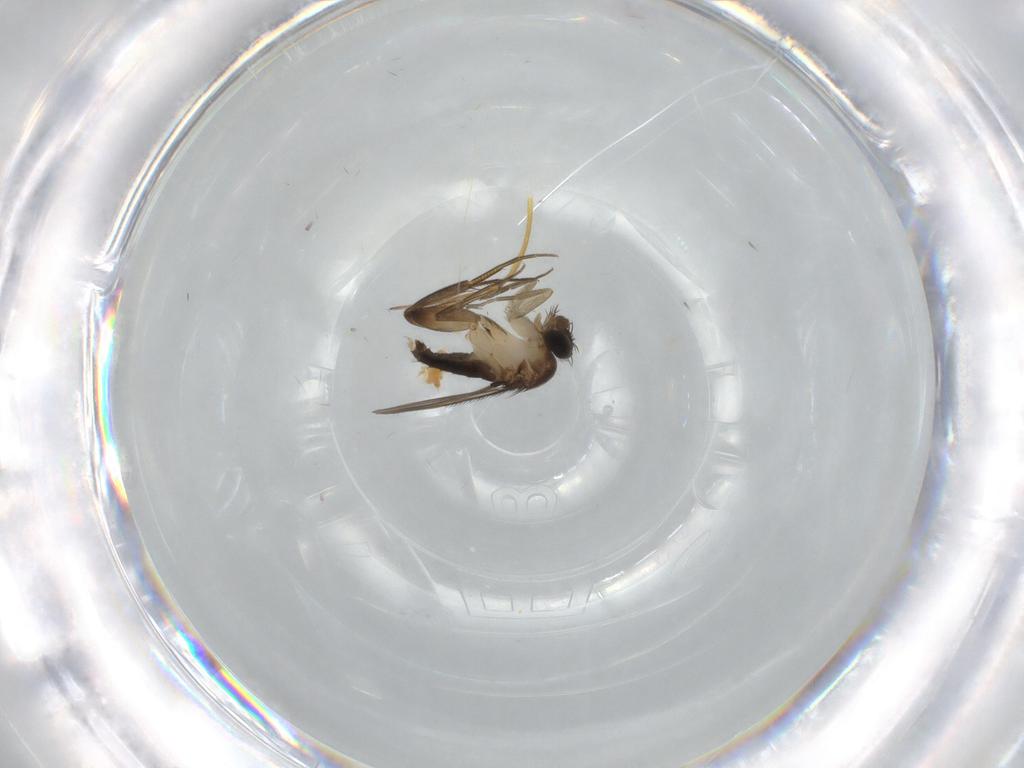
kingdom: Animalia
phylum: Arthropoda
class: Insecta
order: Diptera
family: Phoridae
